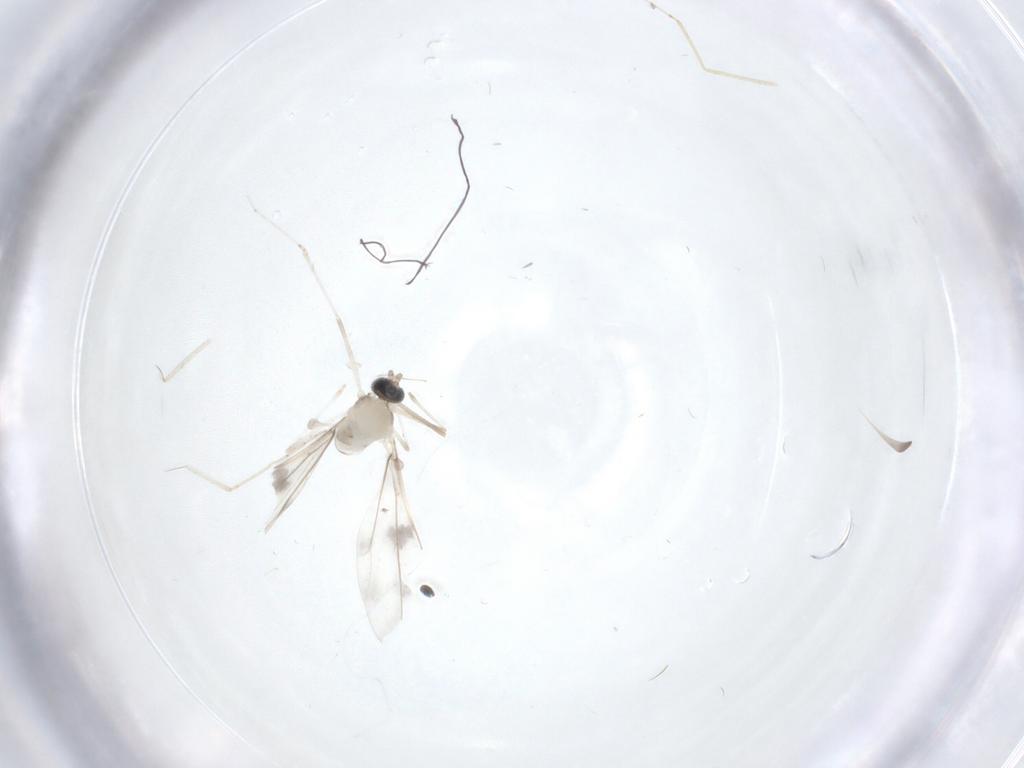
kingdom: Animalia
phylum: Arthropoda
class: Insecta
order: Diptera
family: Cecidomyiidae
